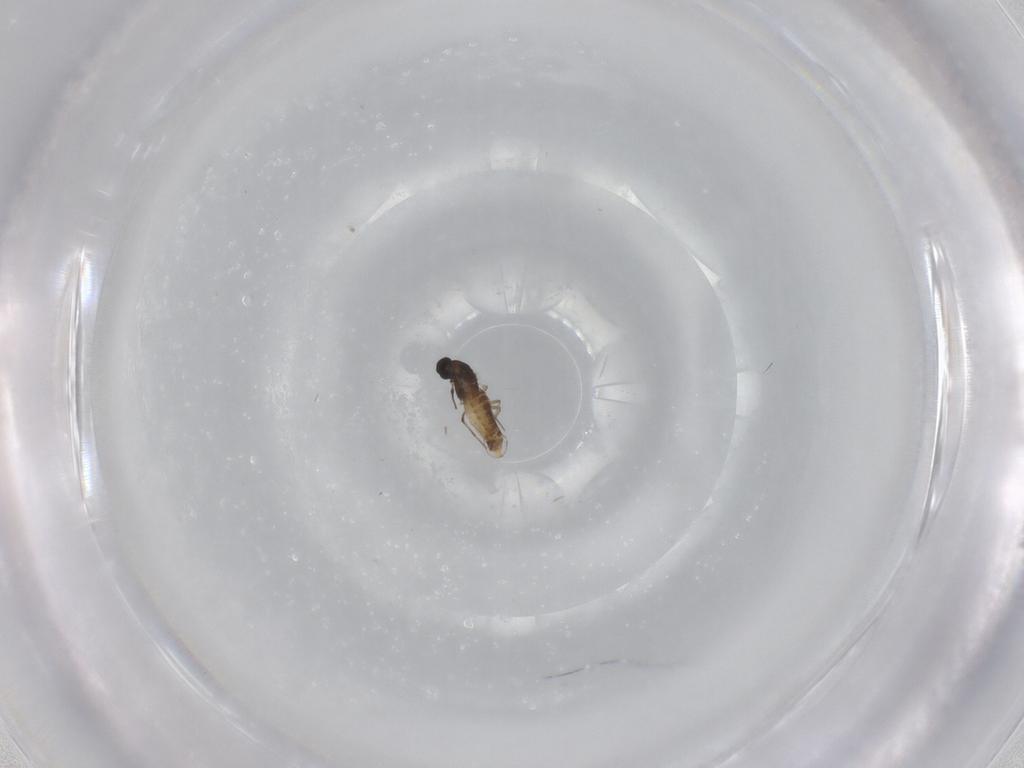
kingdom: Animalia
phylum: Arthropoda
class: Insecta
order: Diptera
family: Chironomidae
